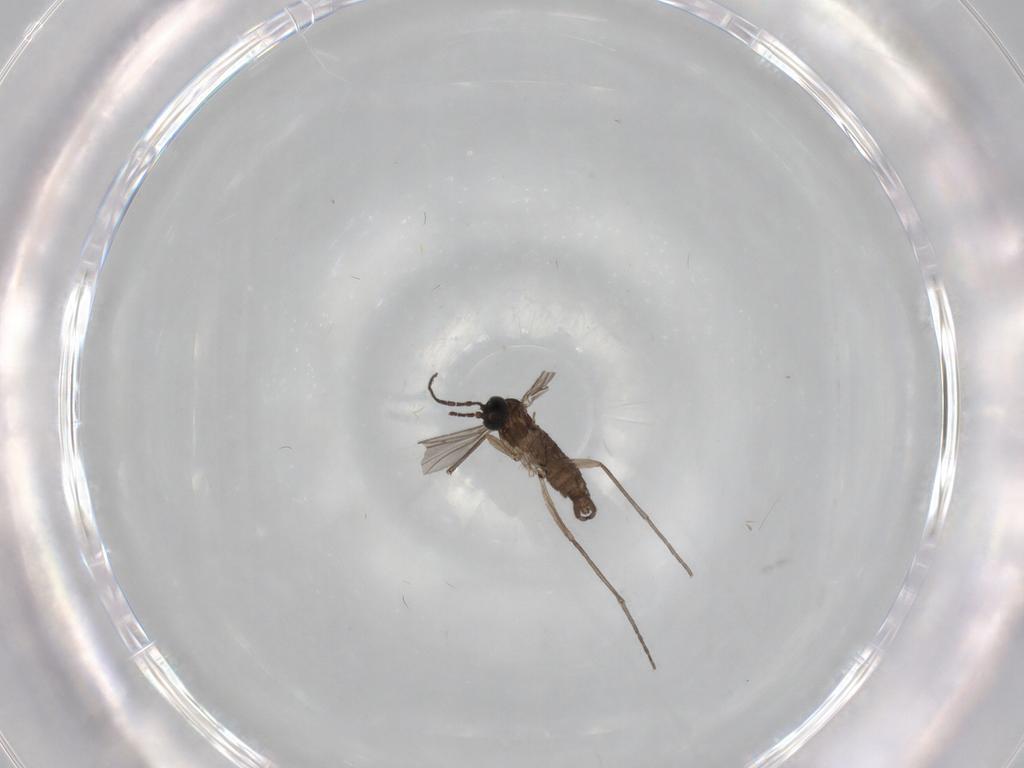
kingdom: Animalia
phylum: Arthropoda
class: Insecta
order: Diptera
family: Sciaridae
